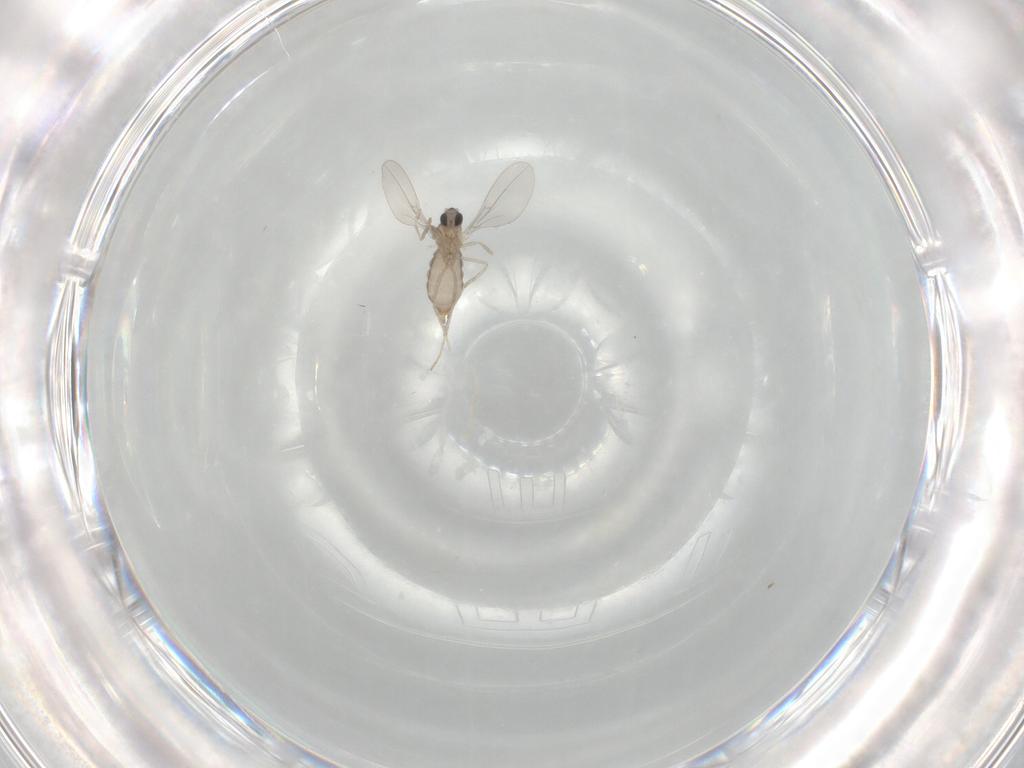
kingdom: Animalia
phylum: Arthropoda
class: Insecta
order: Diptera
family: Cecidomyiidae
